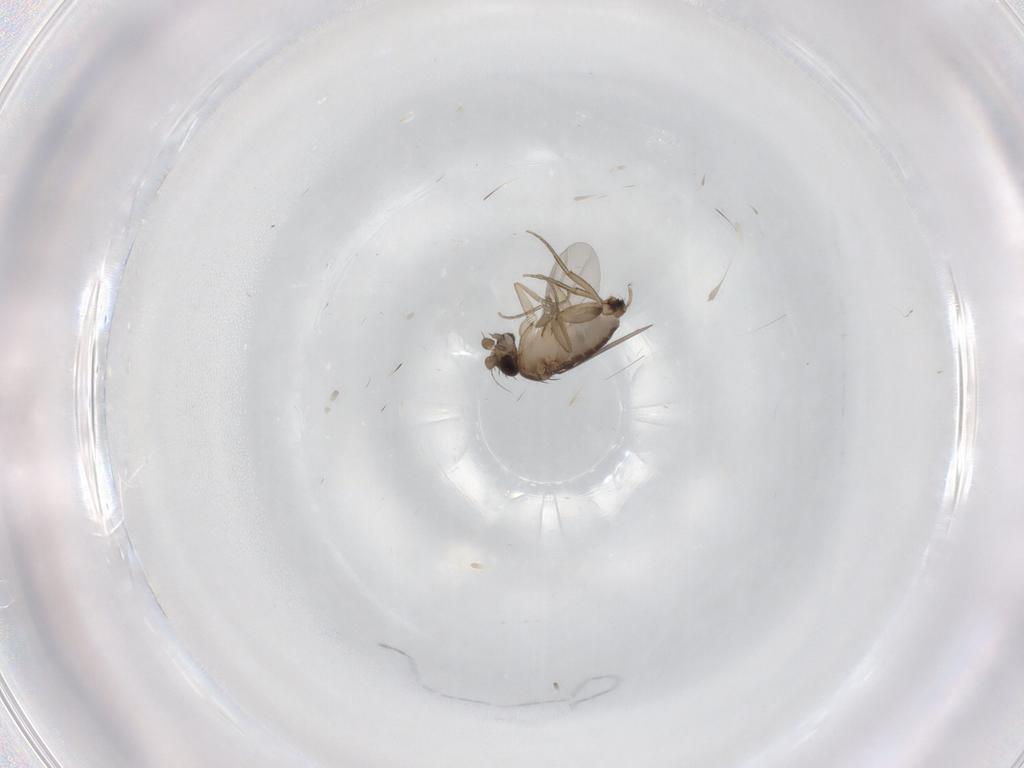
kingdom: Animalia
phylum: Arthropoda
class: Insecta
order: Diptera
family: Phoridae
